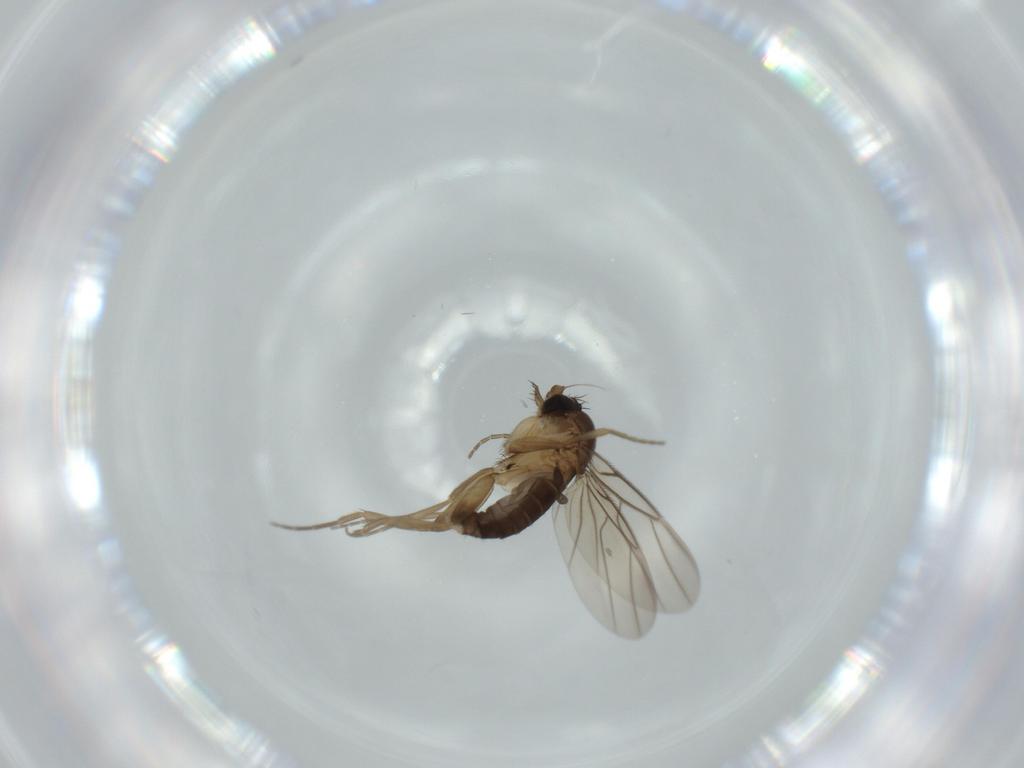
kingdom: Animalia
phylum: Arthropoda
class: Insecta
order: Diptera
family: Phoridae
